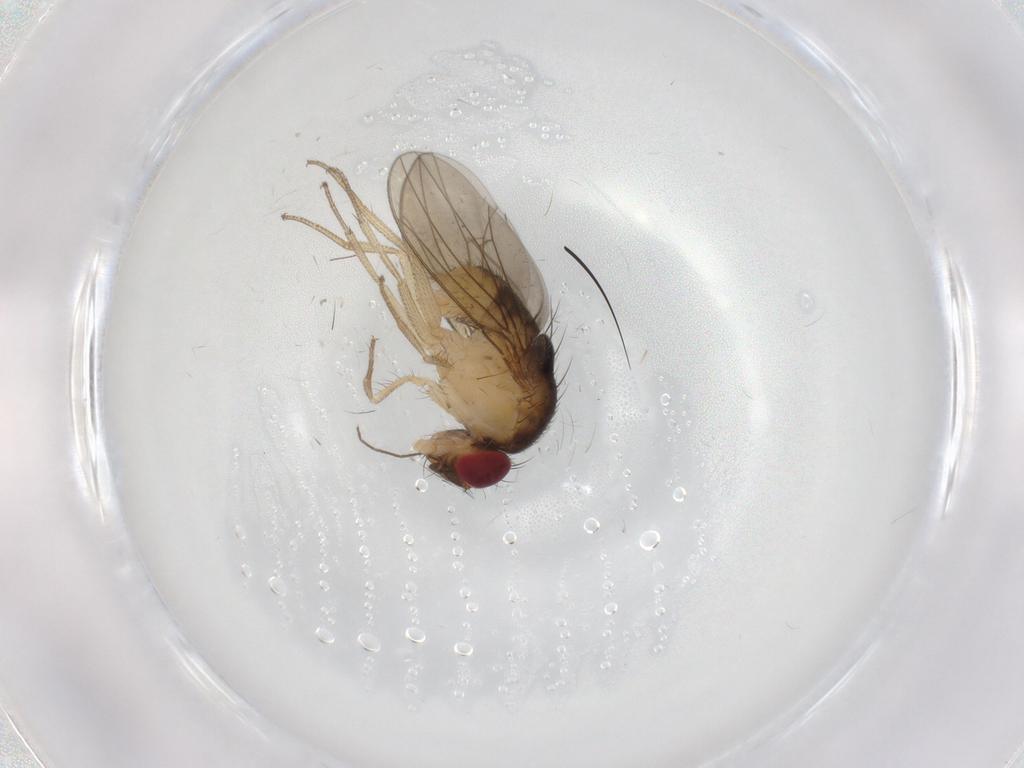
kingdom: Animalia
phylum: Arthropoda
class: Insecta
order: Diptera
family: Drosophilidae
